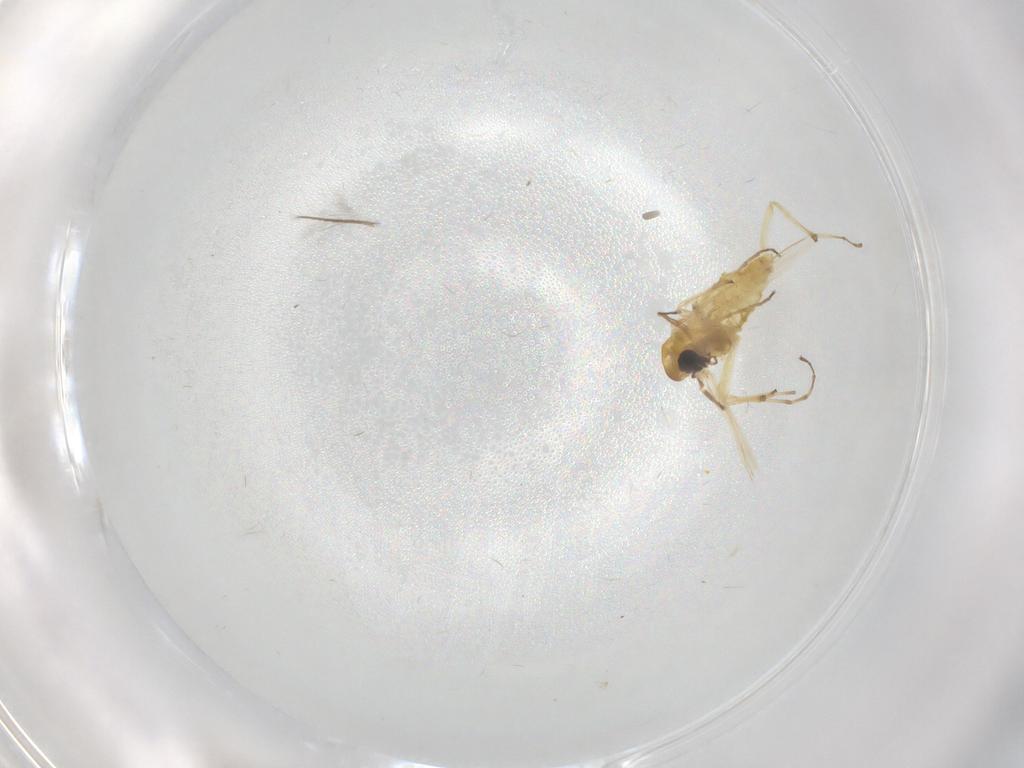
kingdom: Animalia
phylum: Arthropoda
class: Insecta
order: Diptera
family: Chironomidae
